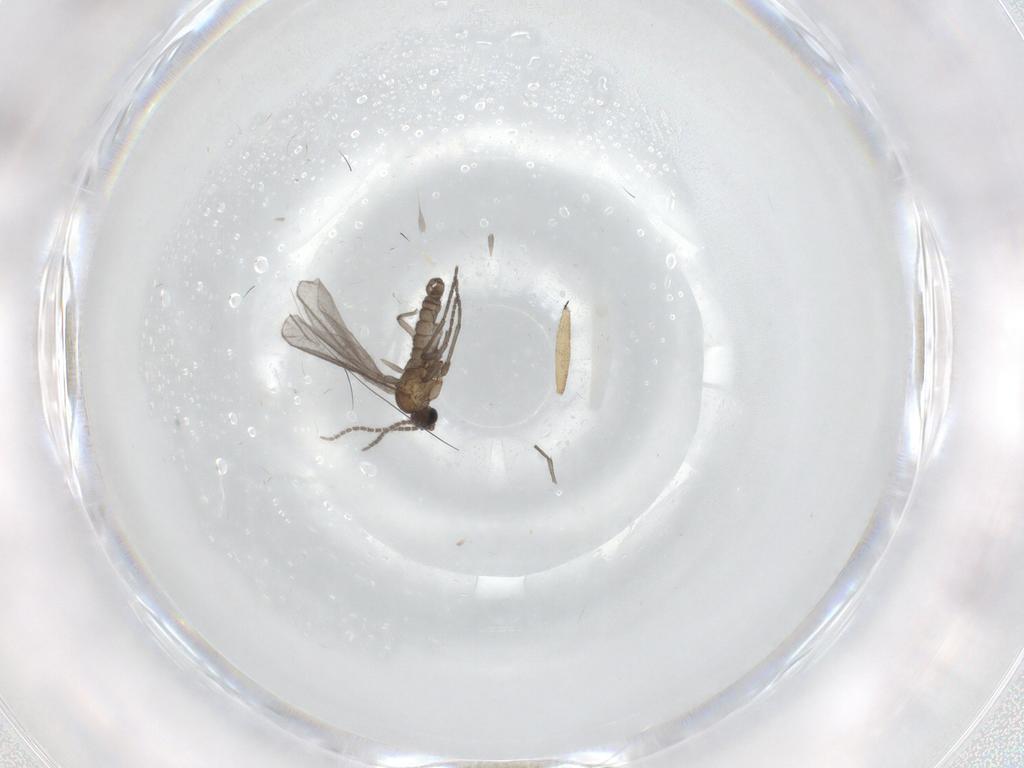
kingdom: Animalia
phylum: Arthropoda
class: Insecta
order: Diptera
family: Sciaridae
